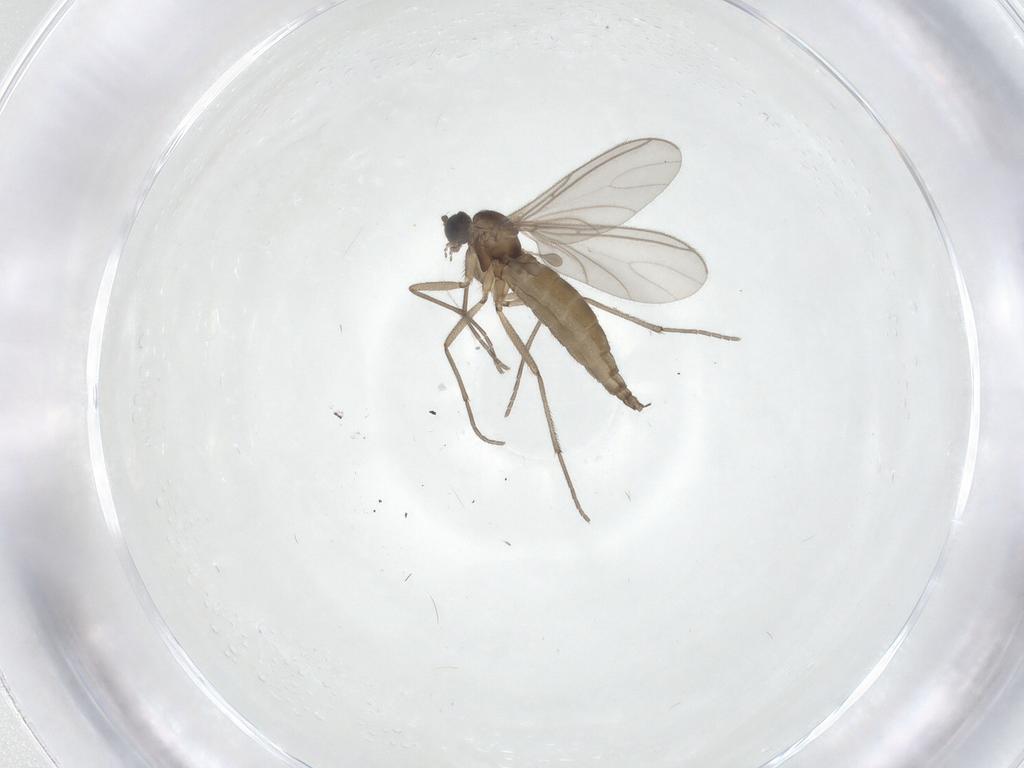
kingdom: Animalia
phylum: Arthropoda
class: Insecta
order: Diptera
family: Sciaridae
